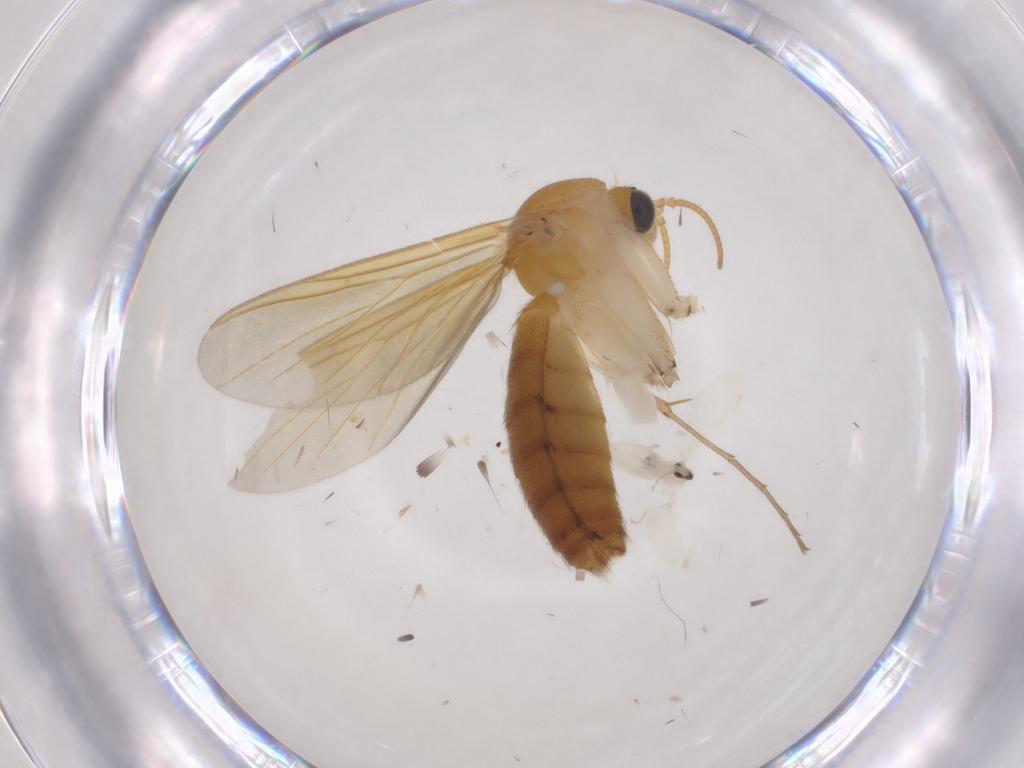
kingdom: Animalia
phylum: Arthropoda
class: Insecta
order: Diptera
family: Mycetophilidae
